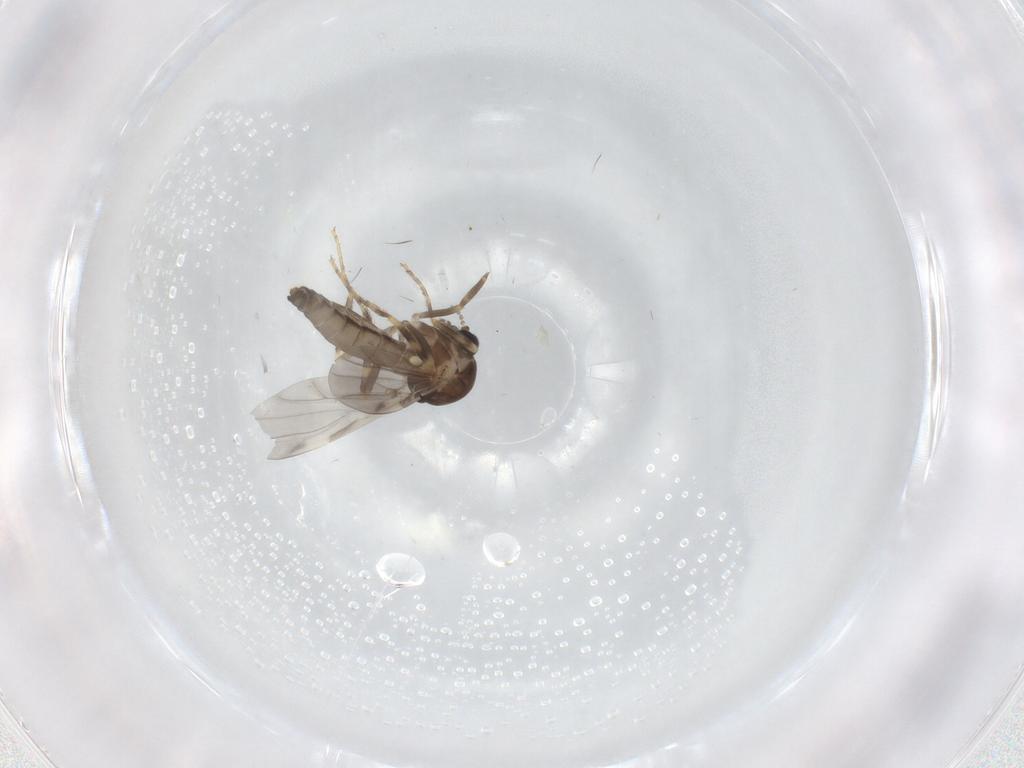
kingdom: Animalia
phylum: Arthropoda
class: Insecta
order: Diptera
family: Ceratopogonidae
